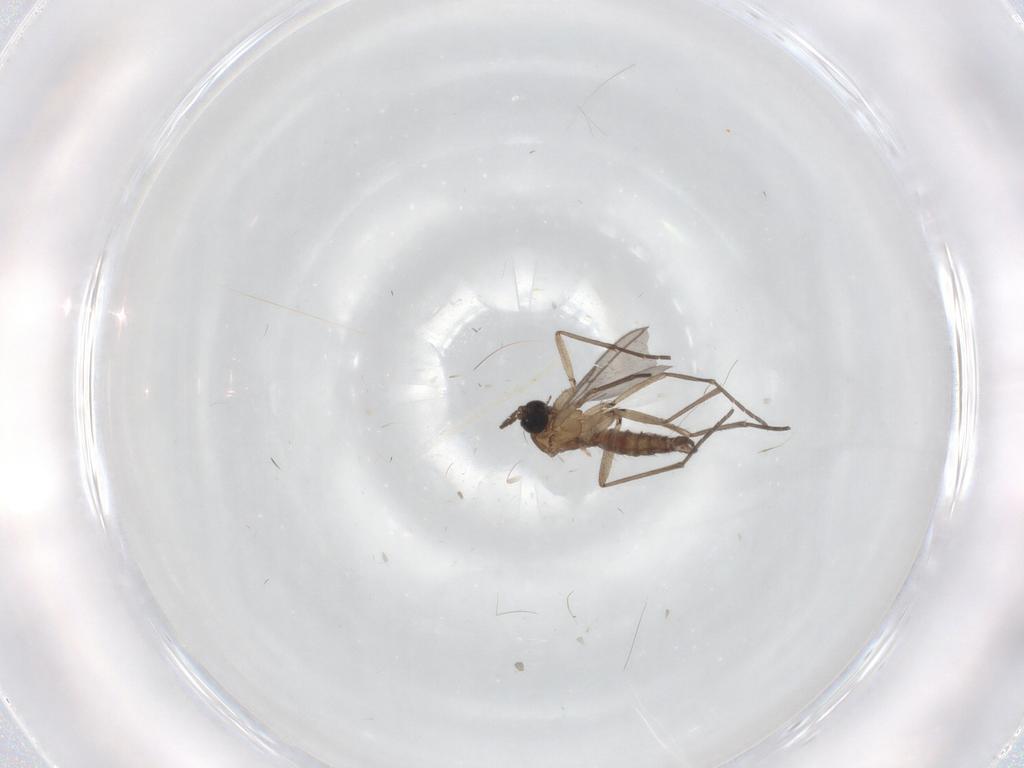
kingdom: Animalia
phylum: Arthropoda
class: Insecta
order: Diptera
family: Sciaridae
